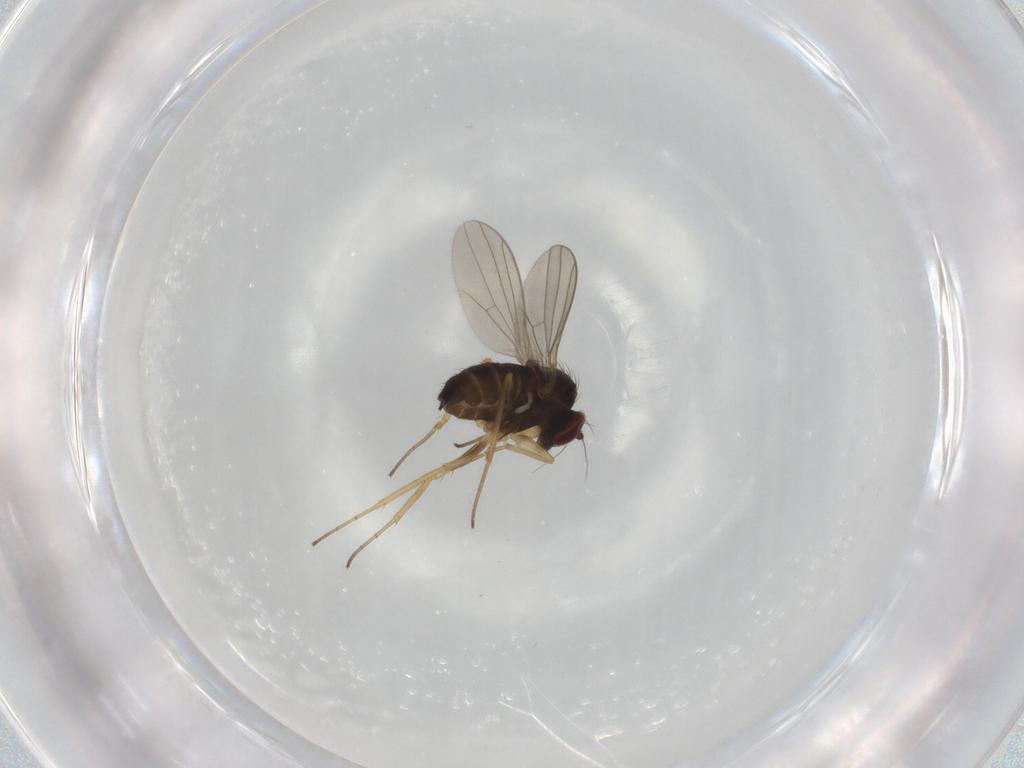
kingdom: Animalia
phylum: Arthropoda
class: Insecta
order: Diptera
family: Dolichopodidae
